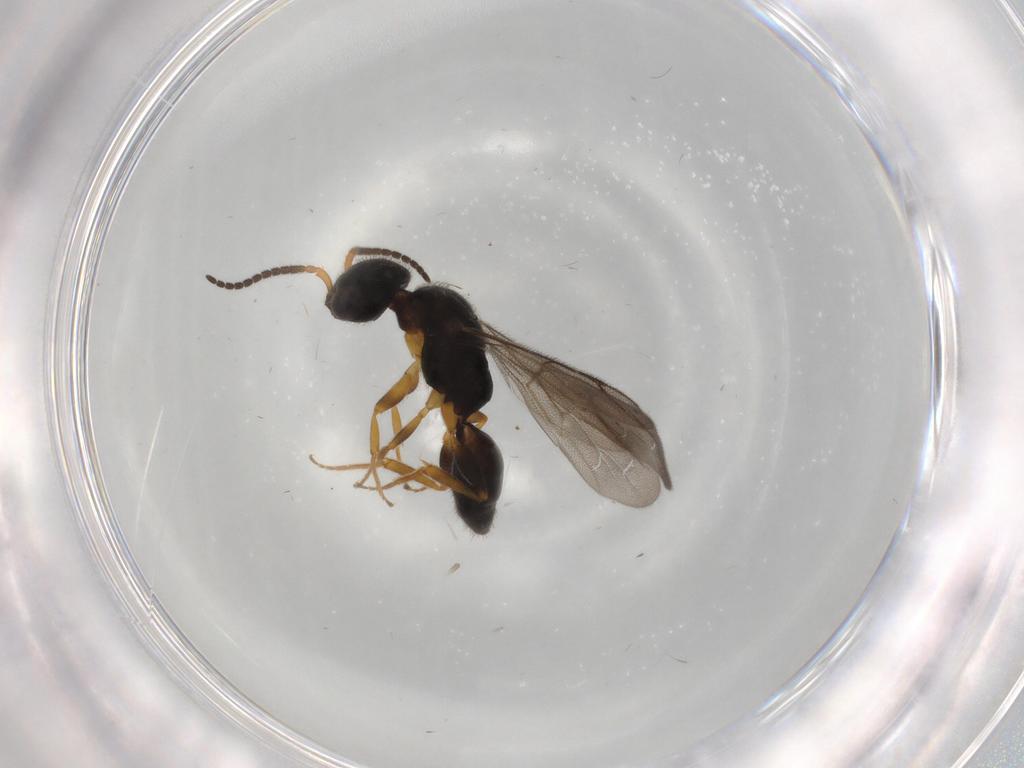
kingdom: Animalia
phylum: Arthropoda
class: Insecta
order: Hymenoptera
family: Bethylidae
